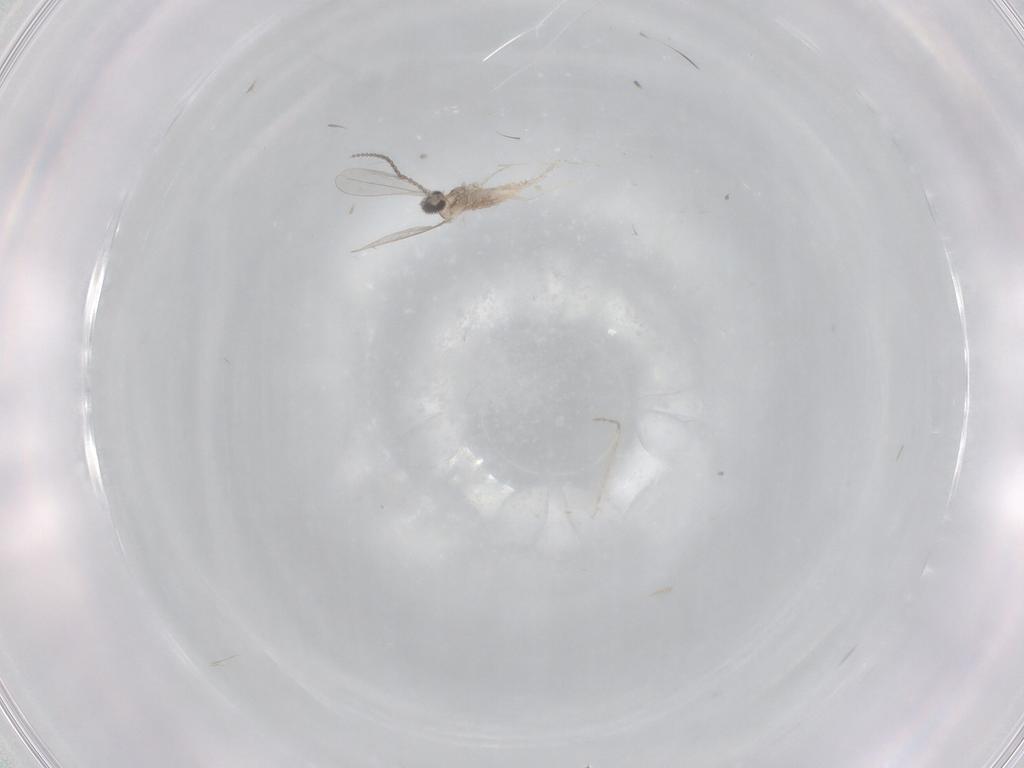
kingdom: Animalia
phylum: Arthropoda
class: Insecta
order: Diptera
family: Cecidomyiidae
